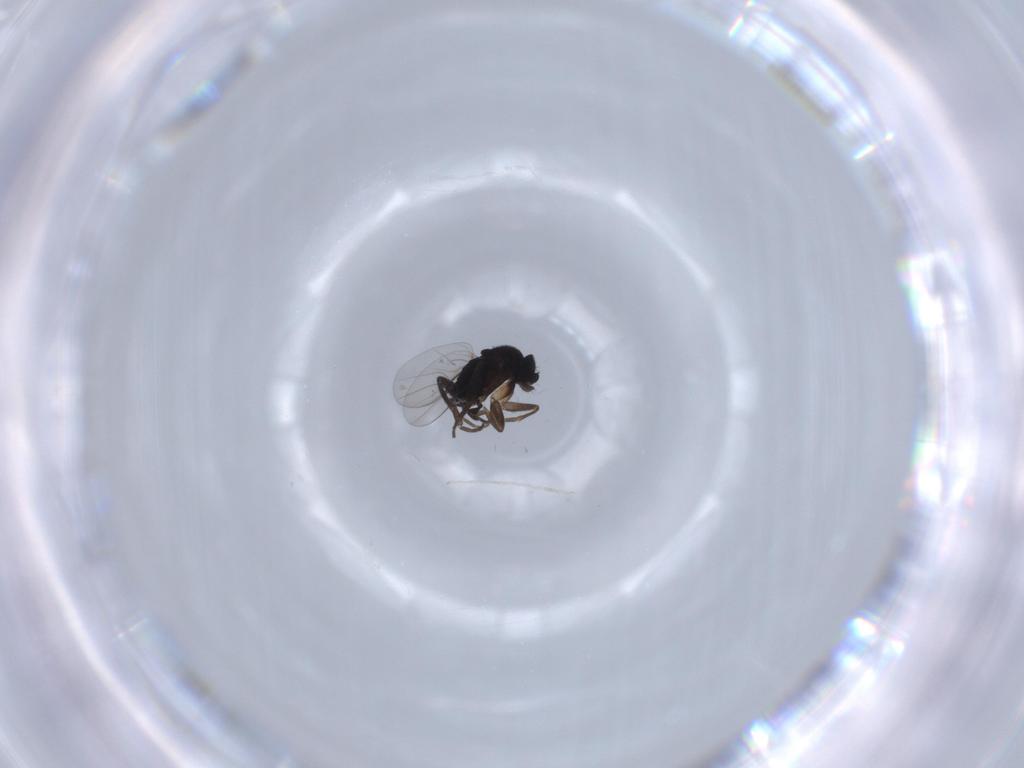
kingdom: Animalia
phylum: Arthropoda
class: Insecta
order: Diptera
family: Phoridae
